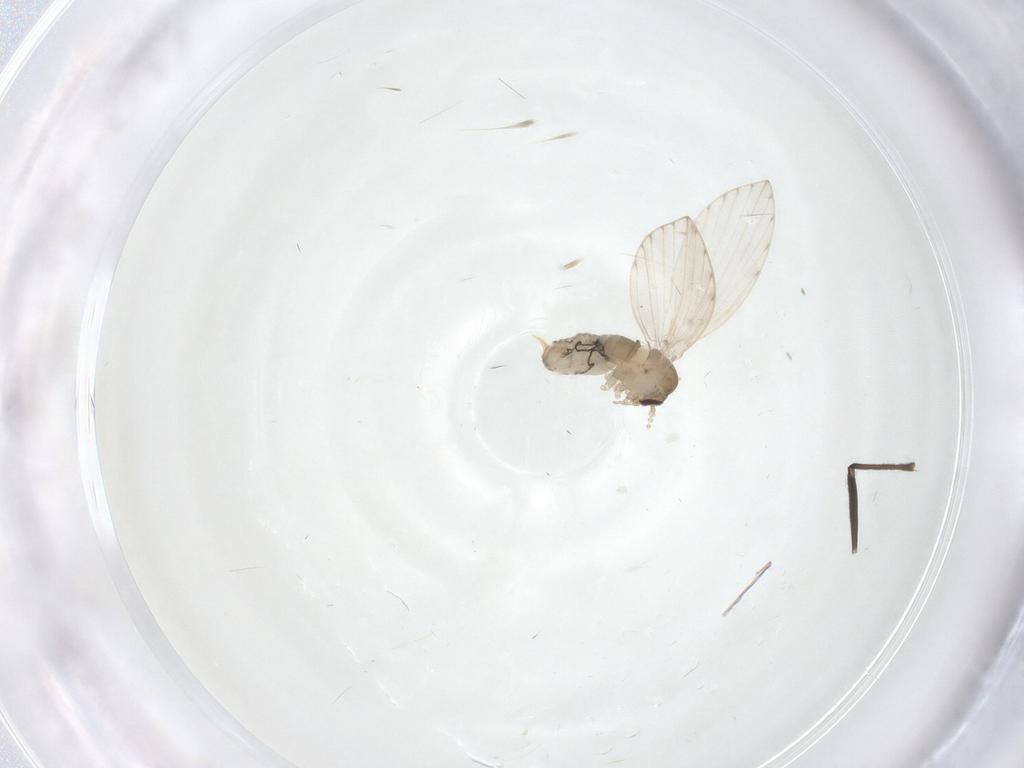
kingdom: Animalia
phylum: Arthropoda
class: Insecta
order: Diptera
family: Psychodidae
